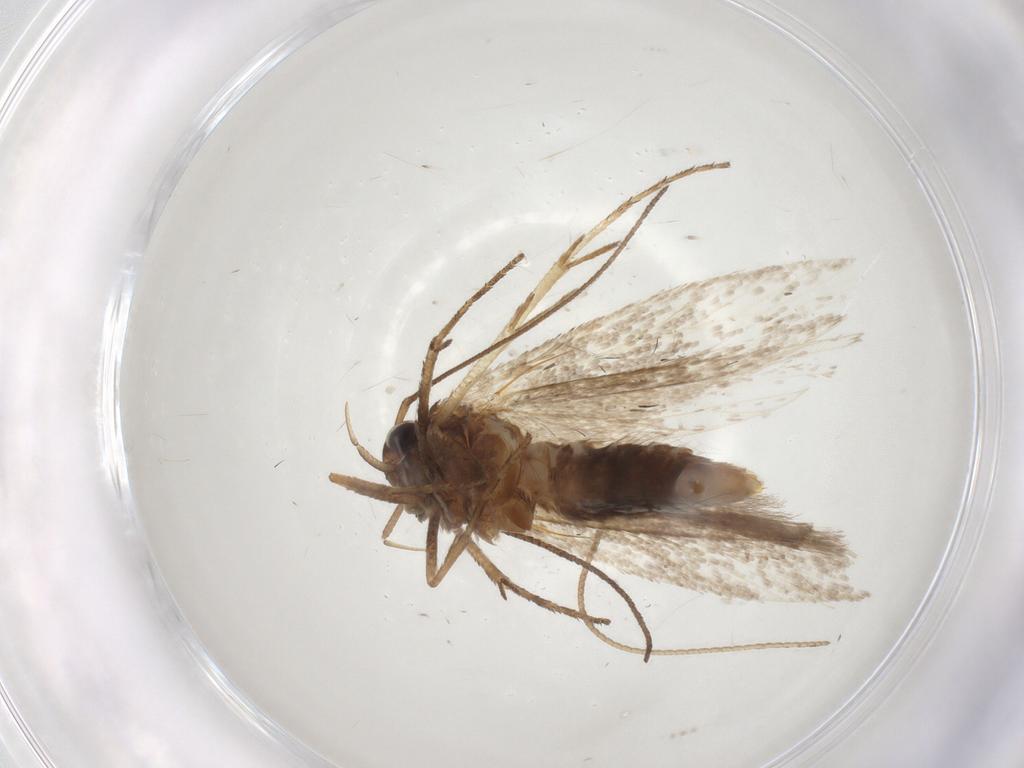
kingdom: Animalia
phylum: Arthropoda
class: Insecta
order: Lepidoptera
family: Gelechiidae
